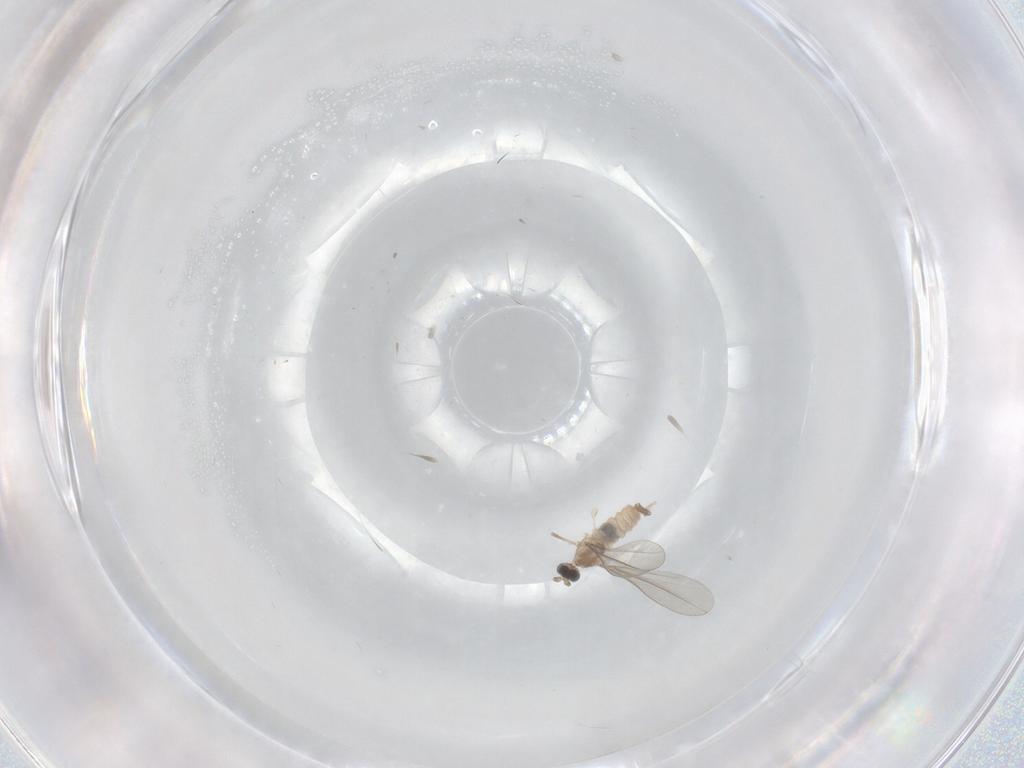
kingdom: Animalia
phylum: Arthropoda
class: Insecta
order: Diptera
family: Cecidomyiidae
